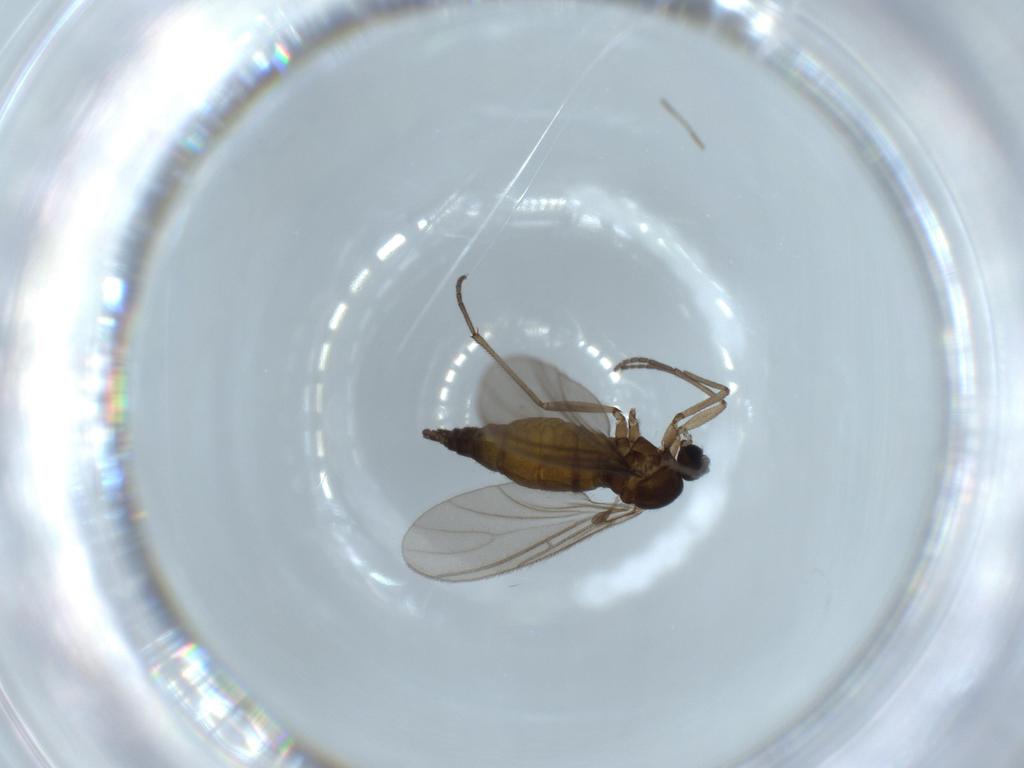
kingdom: Animalia
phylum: Arthropoda
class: Insecta
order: Diptera
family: Sciaridae
